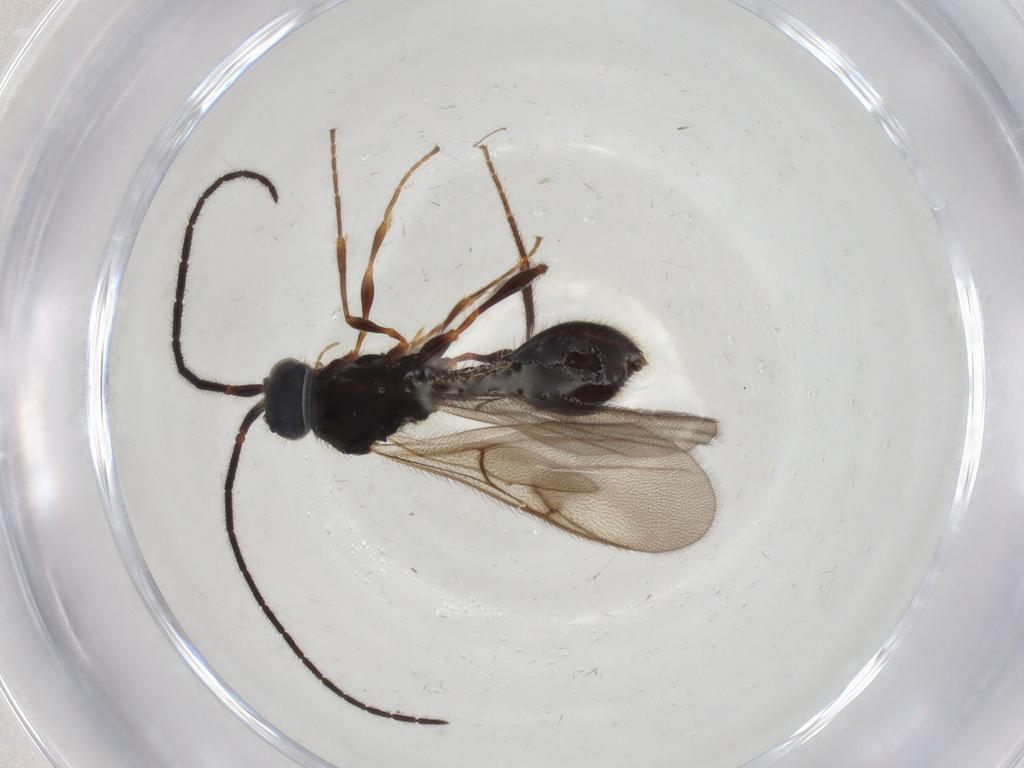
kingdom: Animalia
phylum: Arthropoda
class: Insecta
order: Hymenoptera
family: Diapriidae
